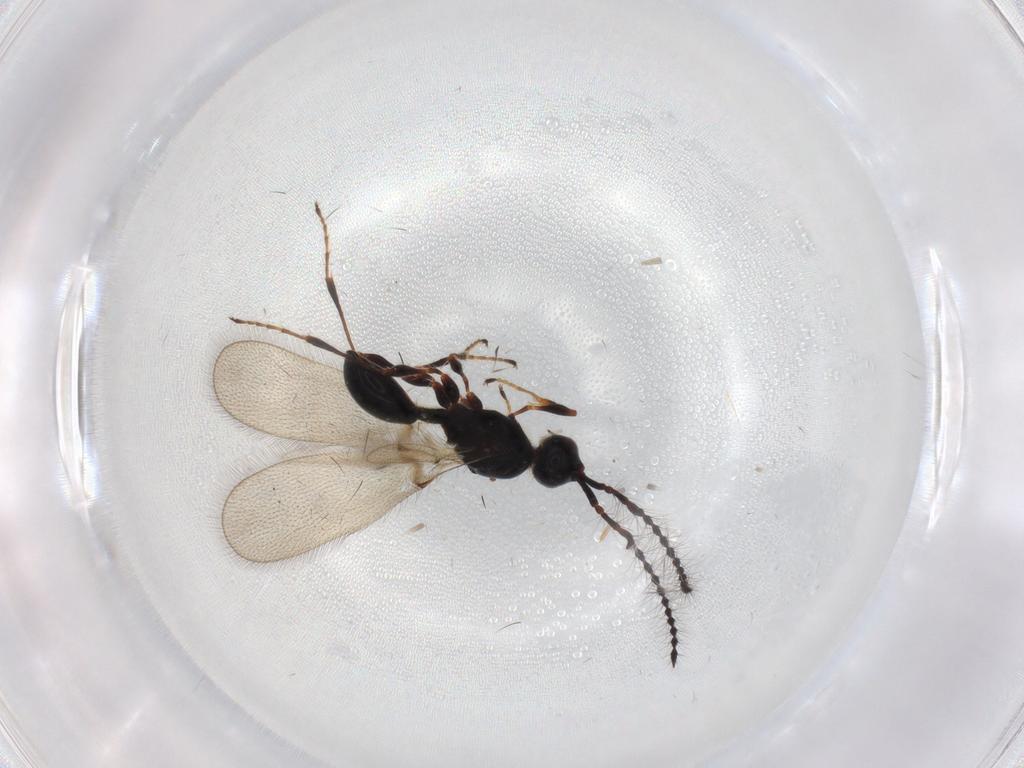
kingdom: Animalia
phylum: Arthropoda
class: Insecta
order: Hymenoptera
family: Diapriidae
